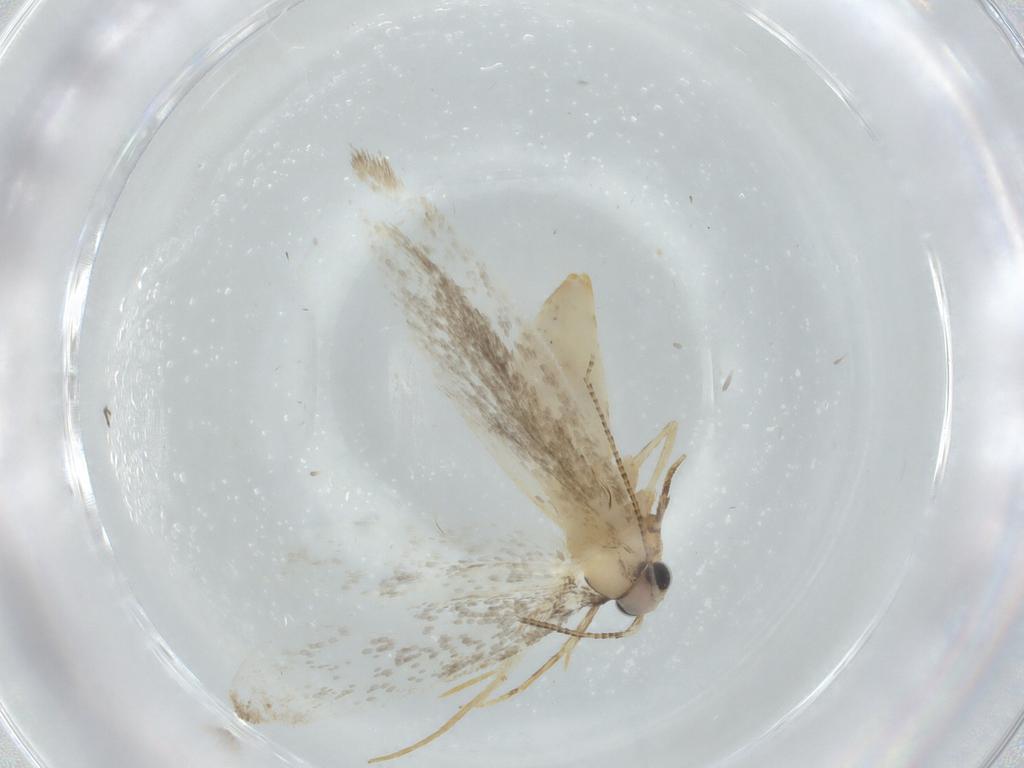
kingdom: Animalia
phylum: Arthropoda
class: Insecta
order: Lepidoptera
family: Tineidae
